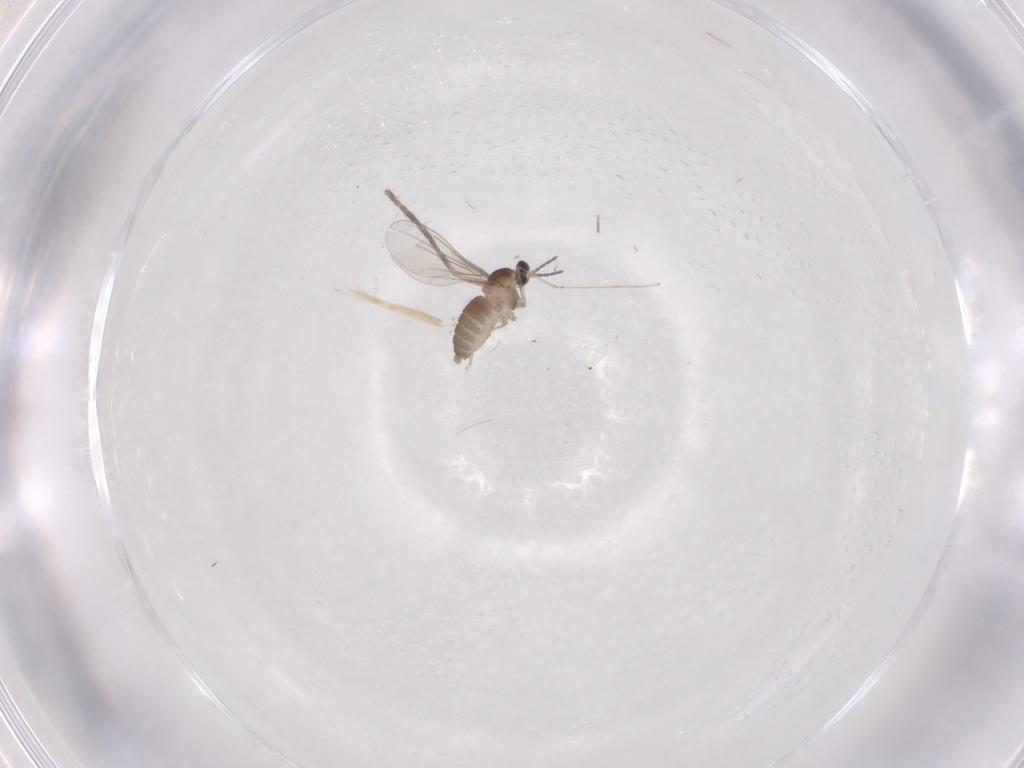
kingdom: Animalia
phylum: Arthropoda
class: Insecta
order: Diptera
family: Cecidomyiidae
